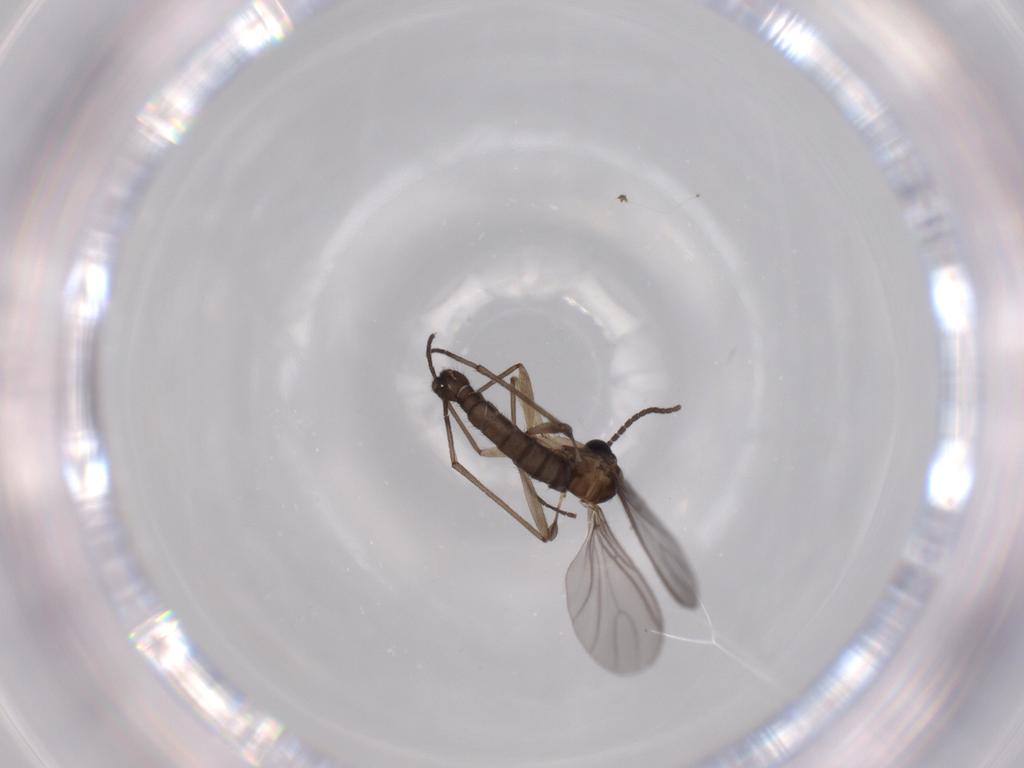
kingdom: Animalia
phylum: Arthropoda
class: Insecta
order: Diptera
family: Sciaridae
